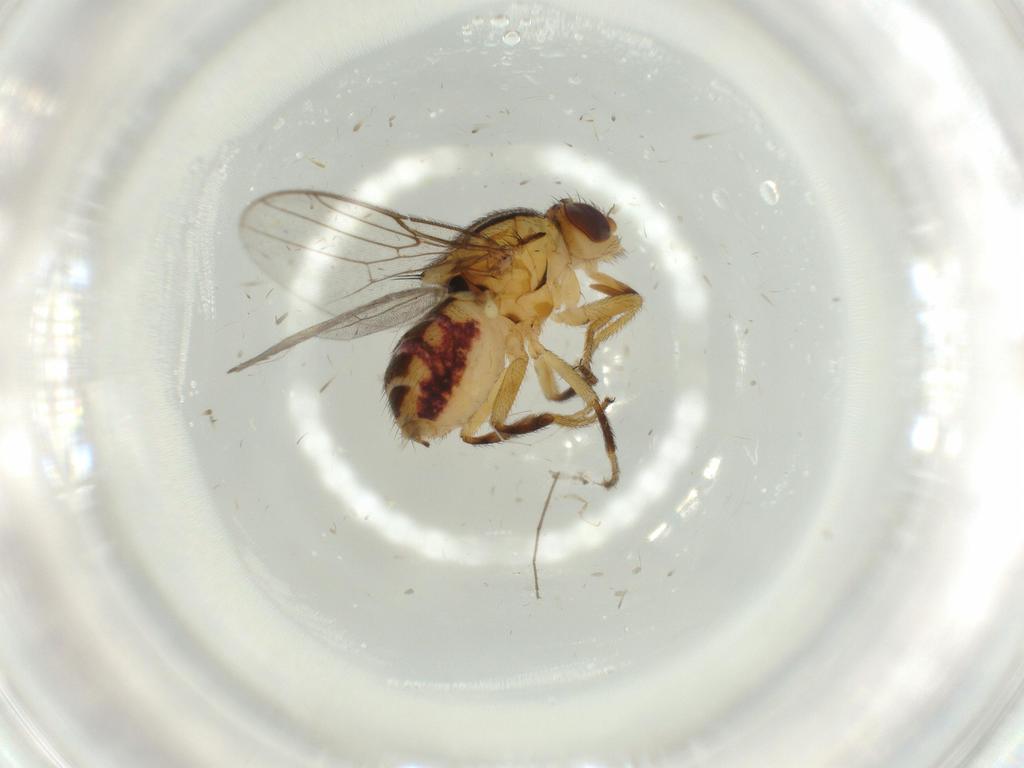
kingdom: Animalia
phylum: Arthropoda
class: Insecta
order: Diptera
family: Chloropidae
